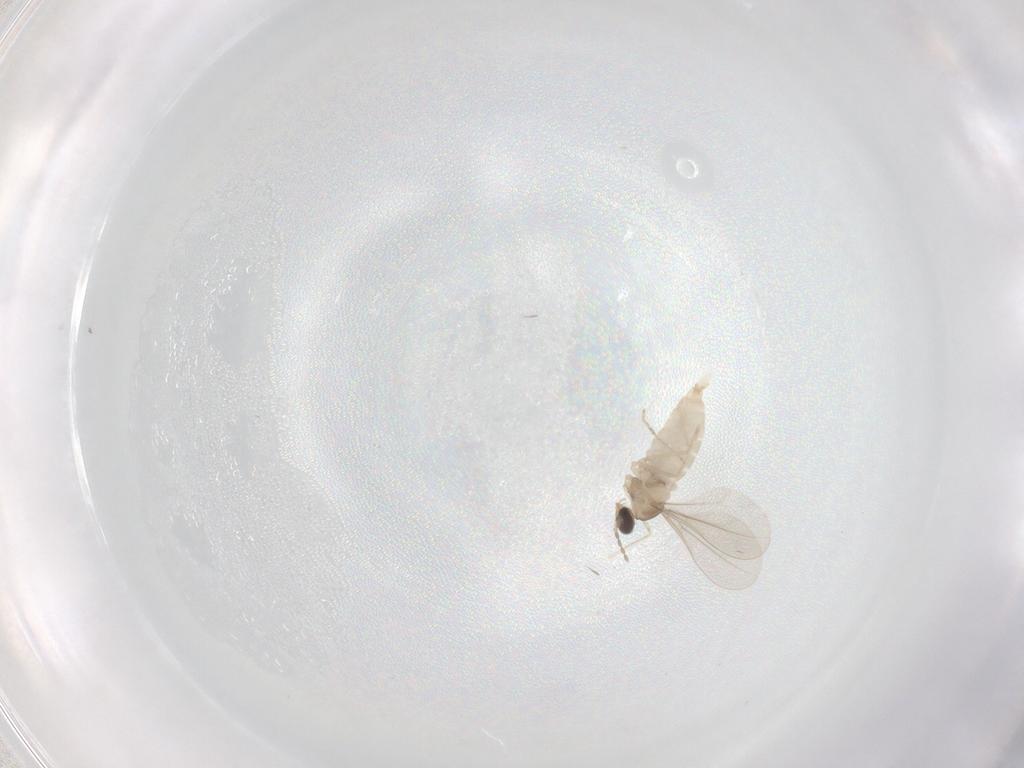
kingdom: Animalia
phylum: Arthropoda
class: Insecta
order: Diptera
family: Cecidomyiidae
